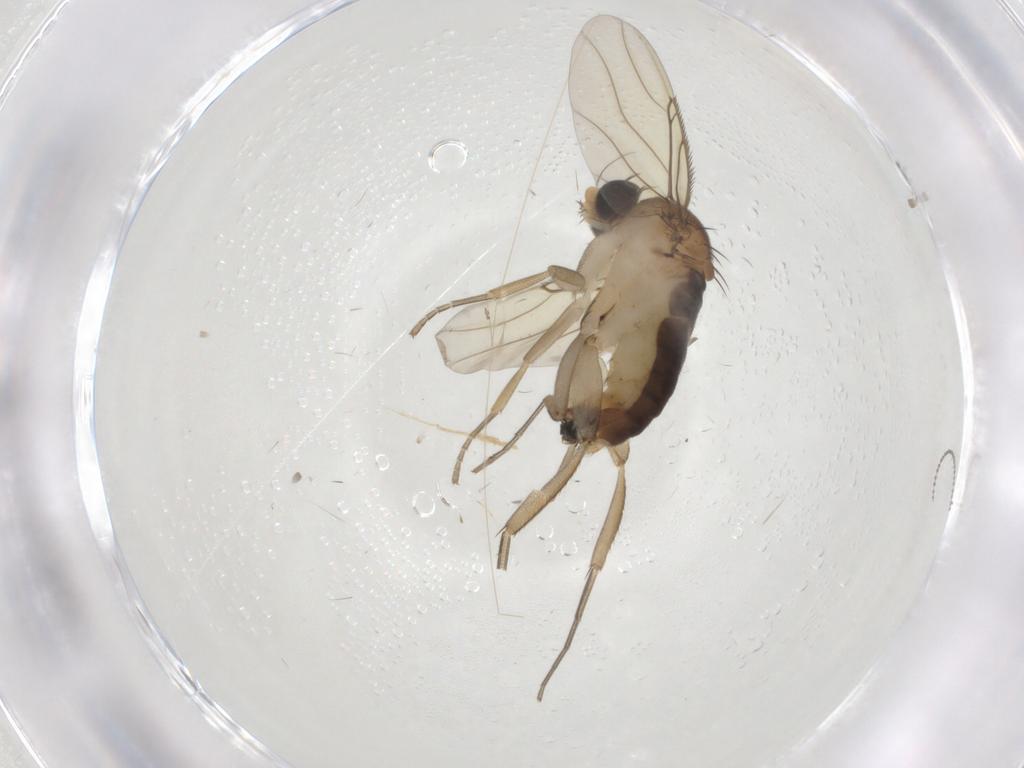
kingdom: Animalia
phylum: Arthropoda
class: Insecta
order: Diptera
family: Phoridae
